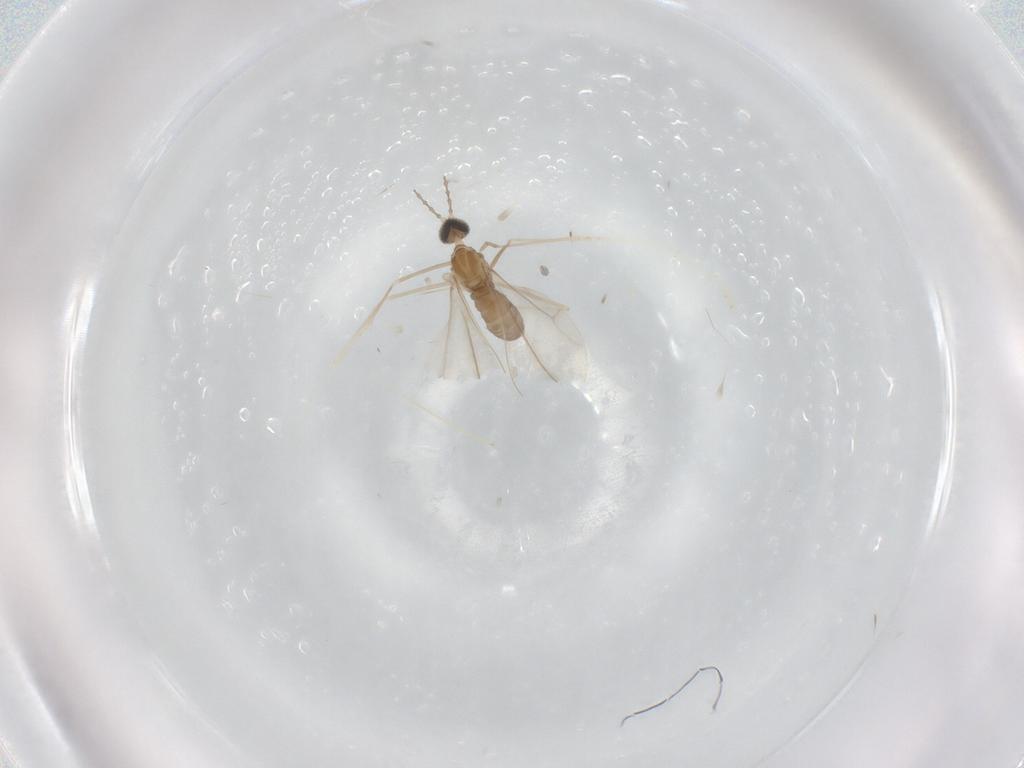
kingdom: Animalia
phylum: Arthropoda
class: Insecta
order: Diptera
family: Cecidomyiidae
